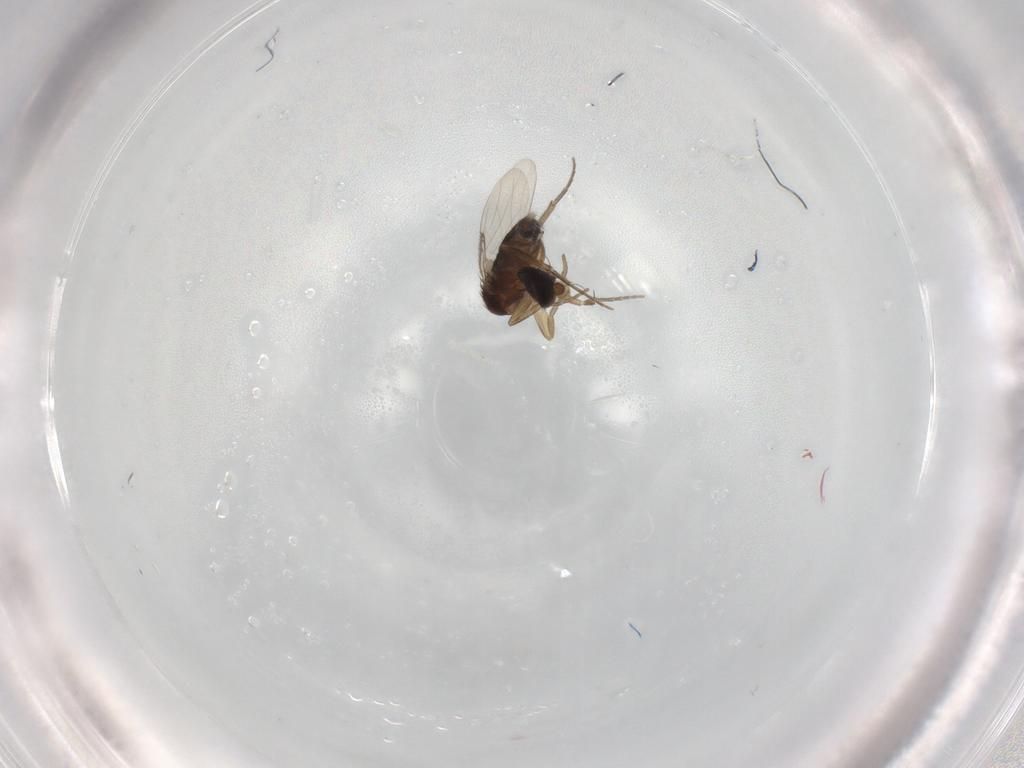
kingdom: Animalia
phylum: Arthropoda
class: Insecta
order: Diptera
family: Phoridae
